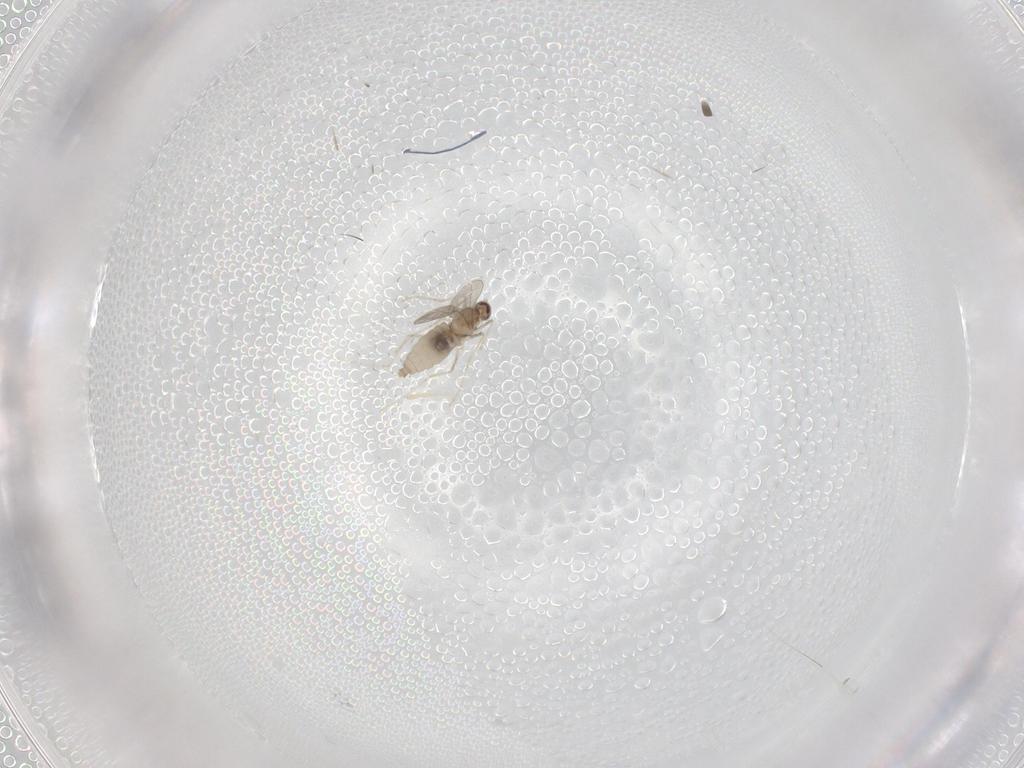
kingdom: Animalia
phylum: Arthropoda
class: Insecta
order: Diptera
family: Cecidomyiidae
